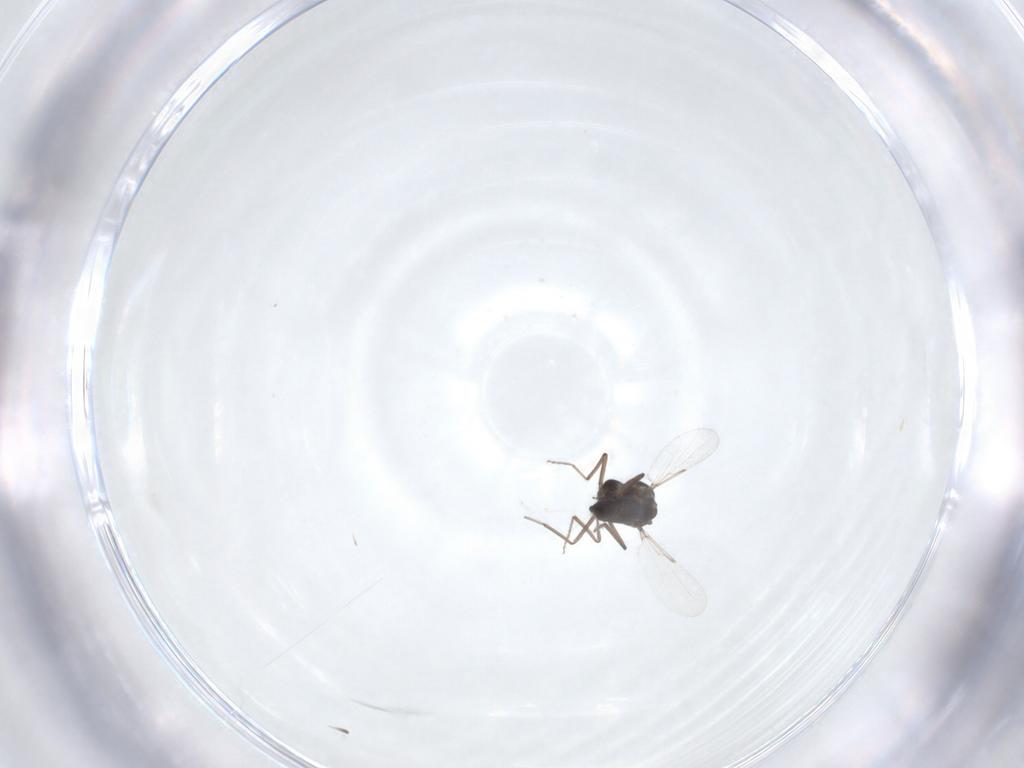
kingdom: Animalia
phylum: Arthropoda
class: Insecta
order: Diptera
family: Ceratopogonidae
